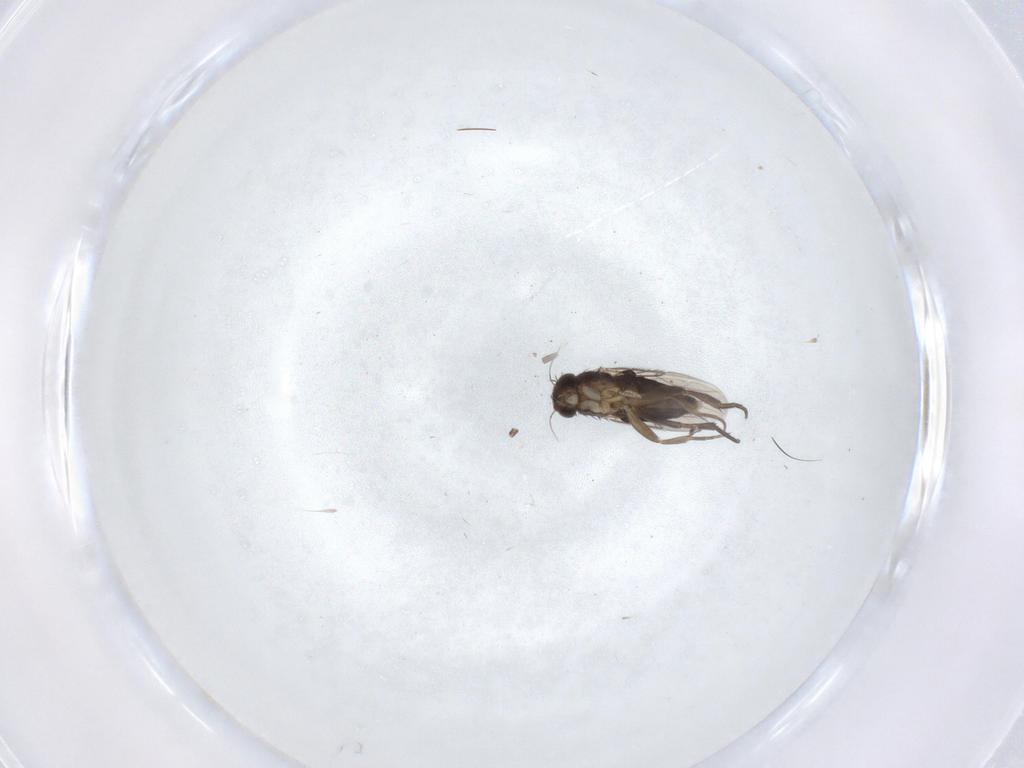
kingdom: Animalia
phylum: Arthropoda
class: Insecta
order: Diptera
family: Phoridae
